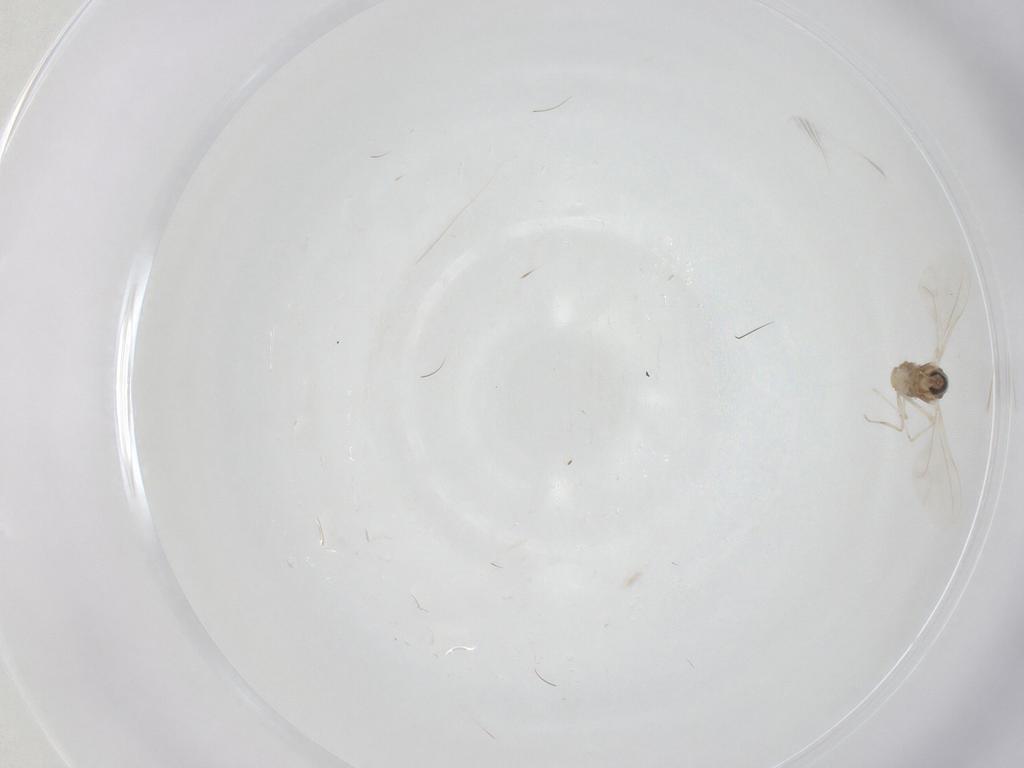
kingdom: Animalia
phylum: Arthropoda
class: Insecta
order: Diptera
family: Cecidomyiidae
